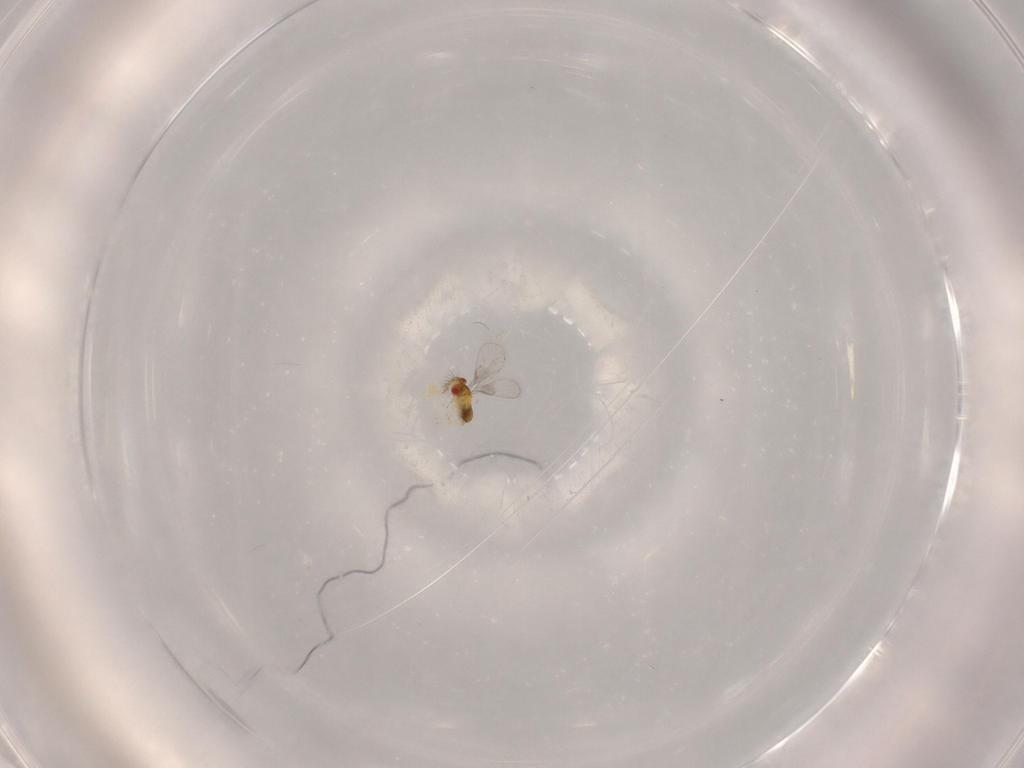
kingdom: Animalia
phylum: Arthropoda
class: Insecta
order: Hymenoptera
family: Trichogrammatidae
